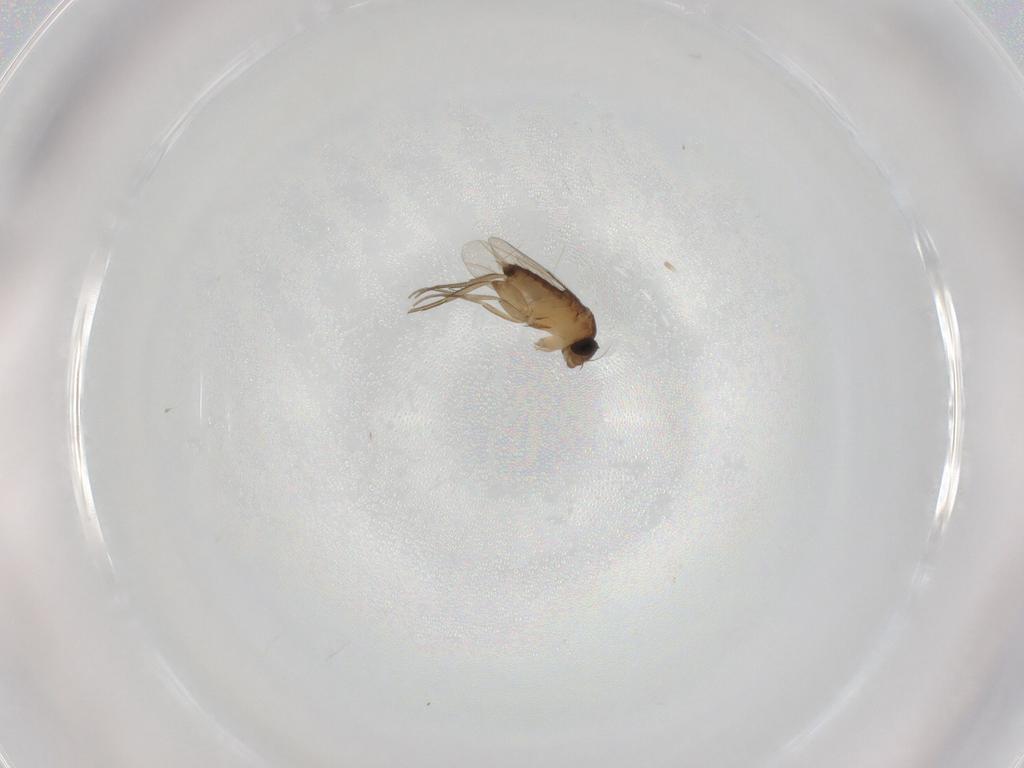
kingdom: Animalia
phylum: Arthropoda
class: Insecta
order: Diptera
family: Phoridae
